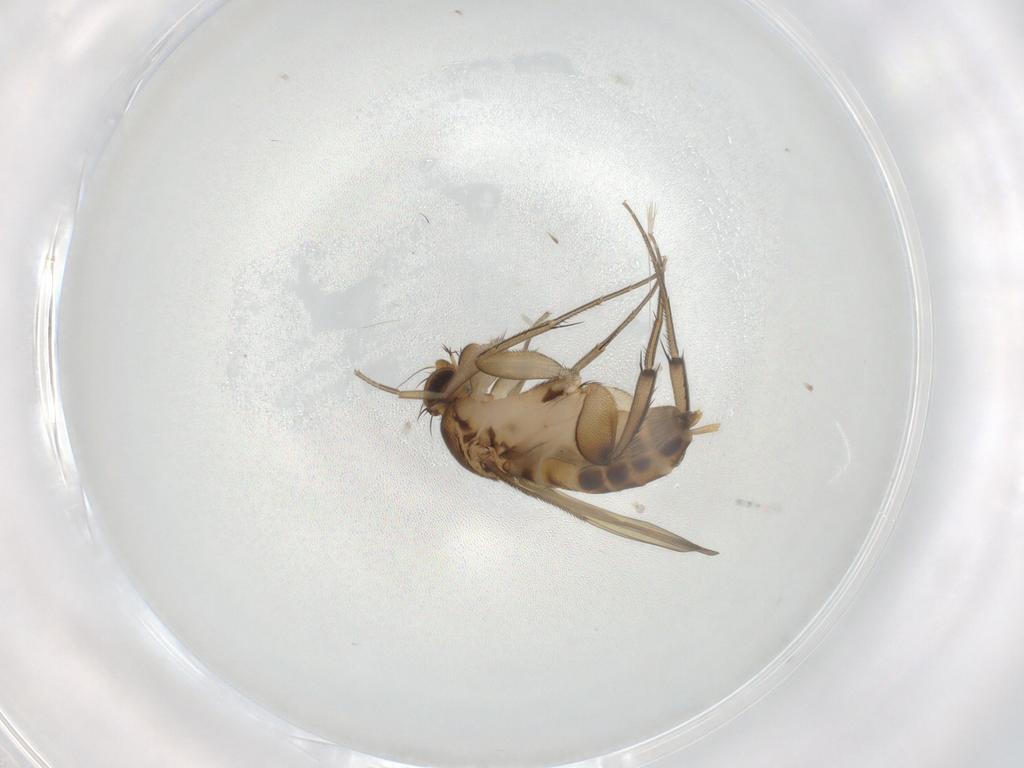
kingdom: Animalia
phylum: Arthropoda
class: Insecta
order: Diptera
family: Phoridae
